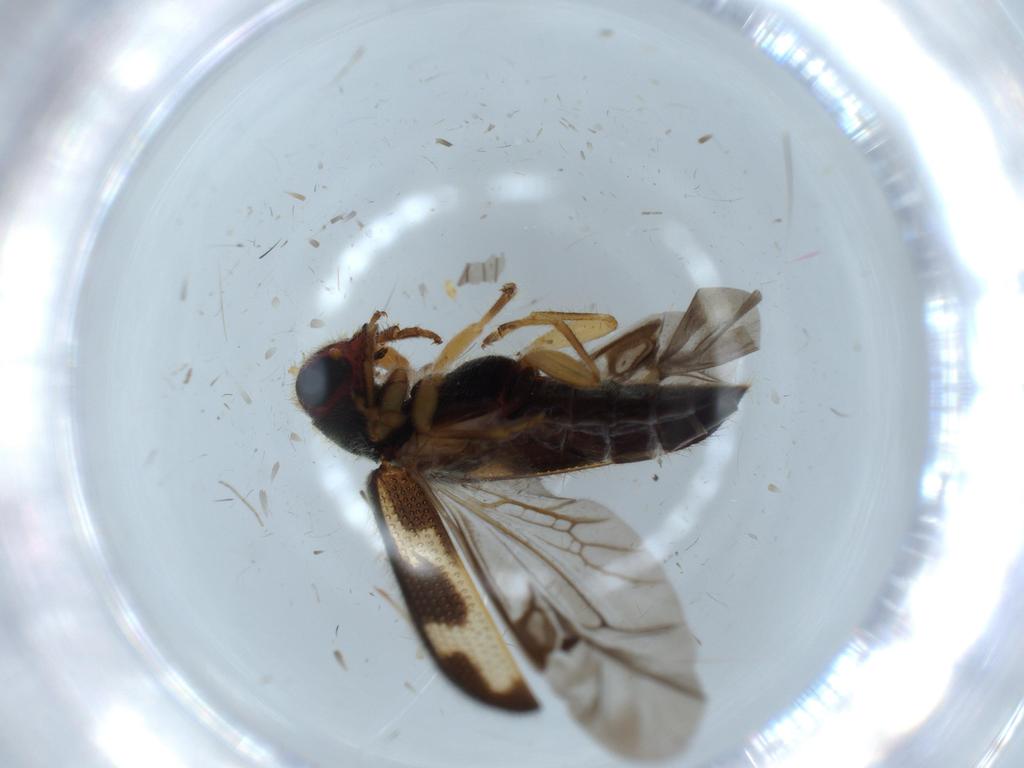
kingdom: Animalia
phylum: Arthropoda
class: Insecta
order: Coleoptera
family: Cleridae
